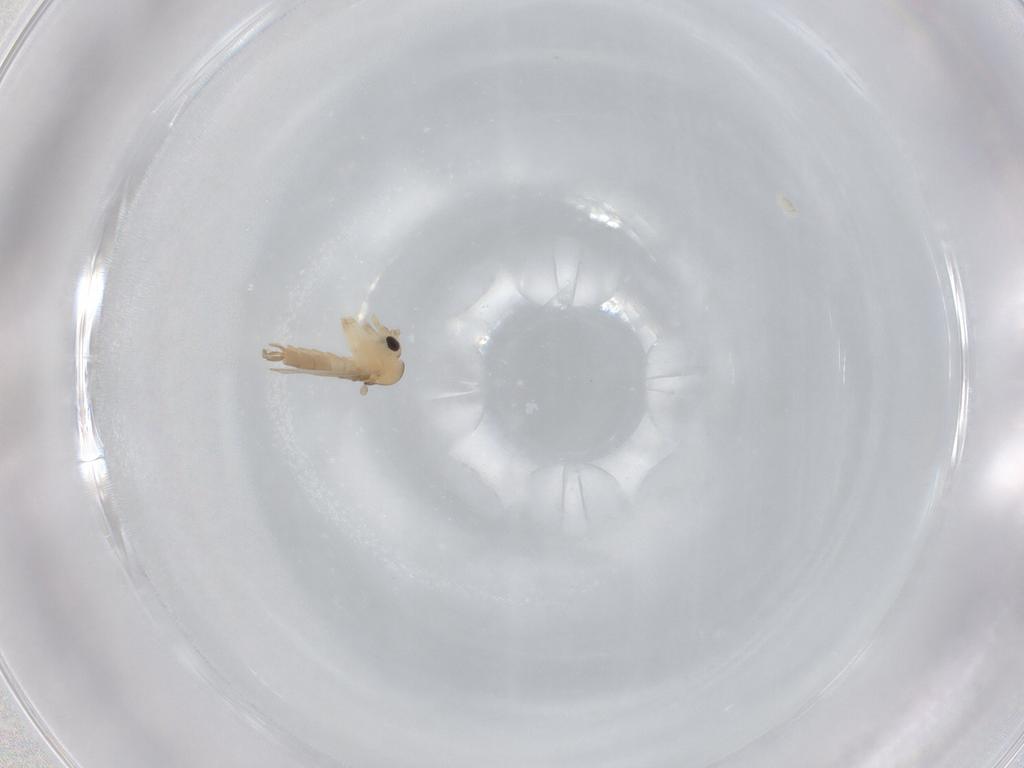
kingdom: Animalia
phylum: Arthropoda
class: Insecta
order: Diptera
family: Psychodidae
